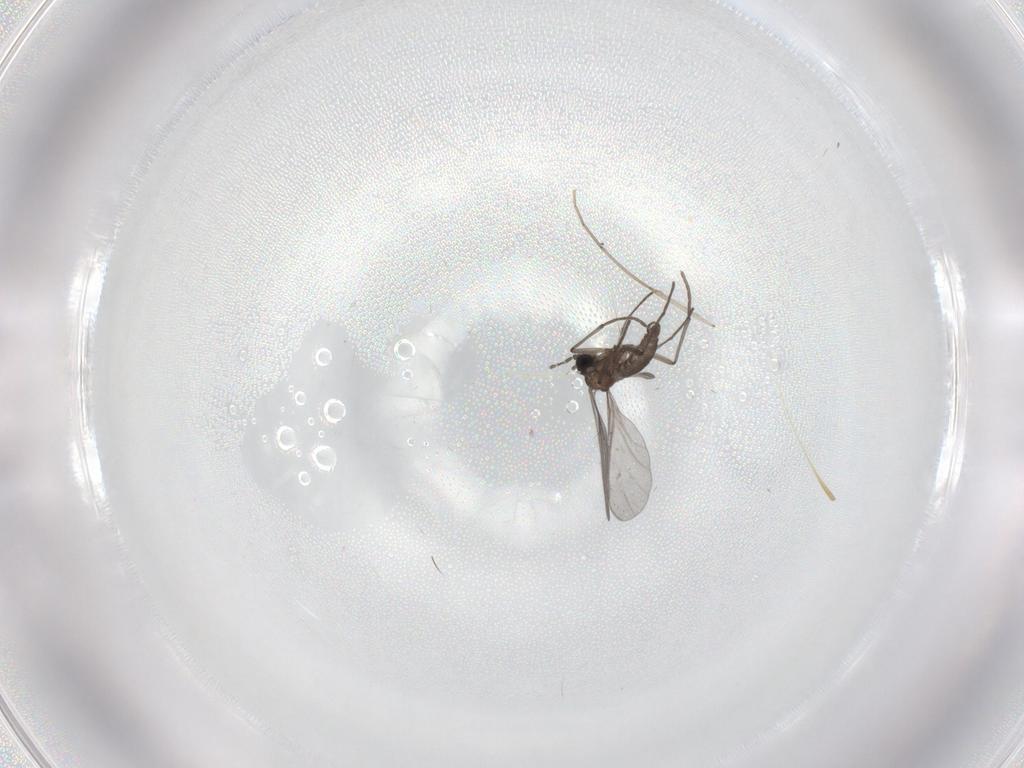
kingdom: Animalia
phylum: Arthropoda
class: Insecta
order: Diptera
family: Sciaridae
